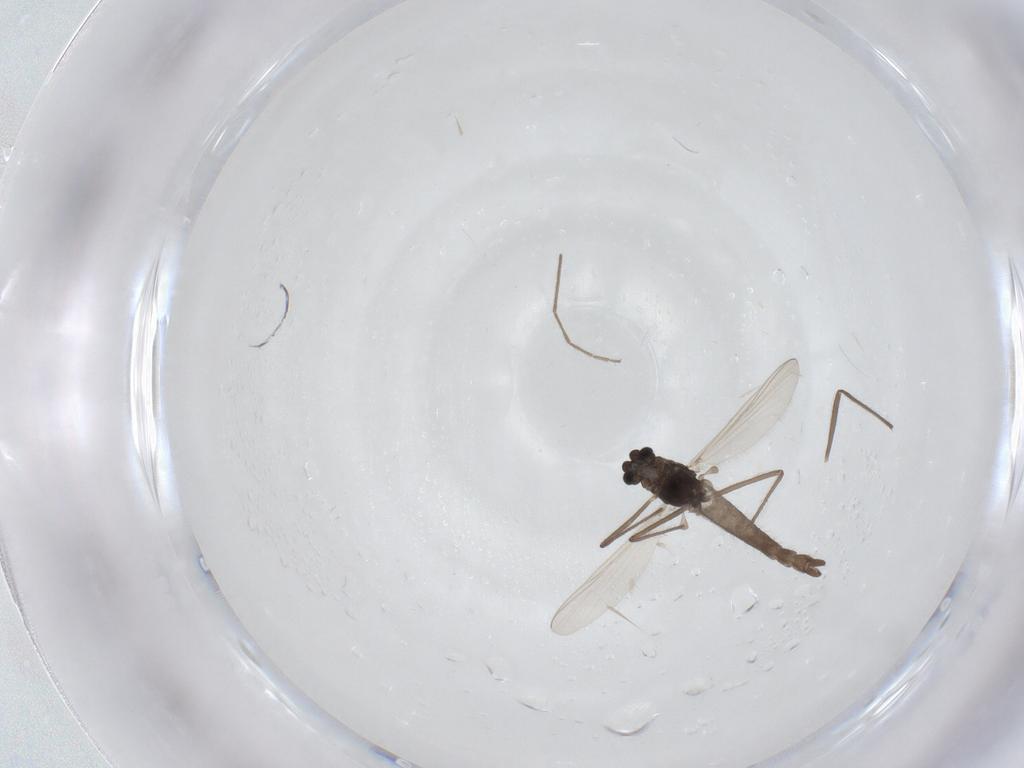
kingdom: Animalia
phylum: Arthropoda
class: Insecta
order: Diptera
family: Chironomidae
